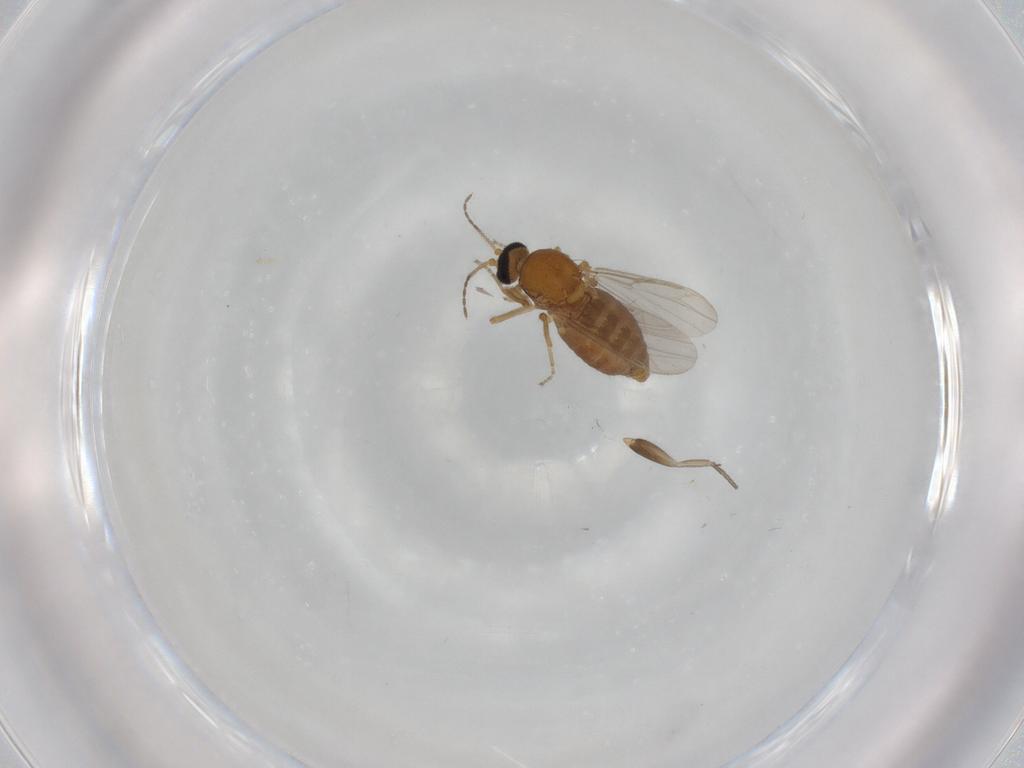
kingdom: Animalia
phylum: Arthropoda
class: Insecta
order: Diptera
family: Ceratopogonidae
